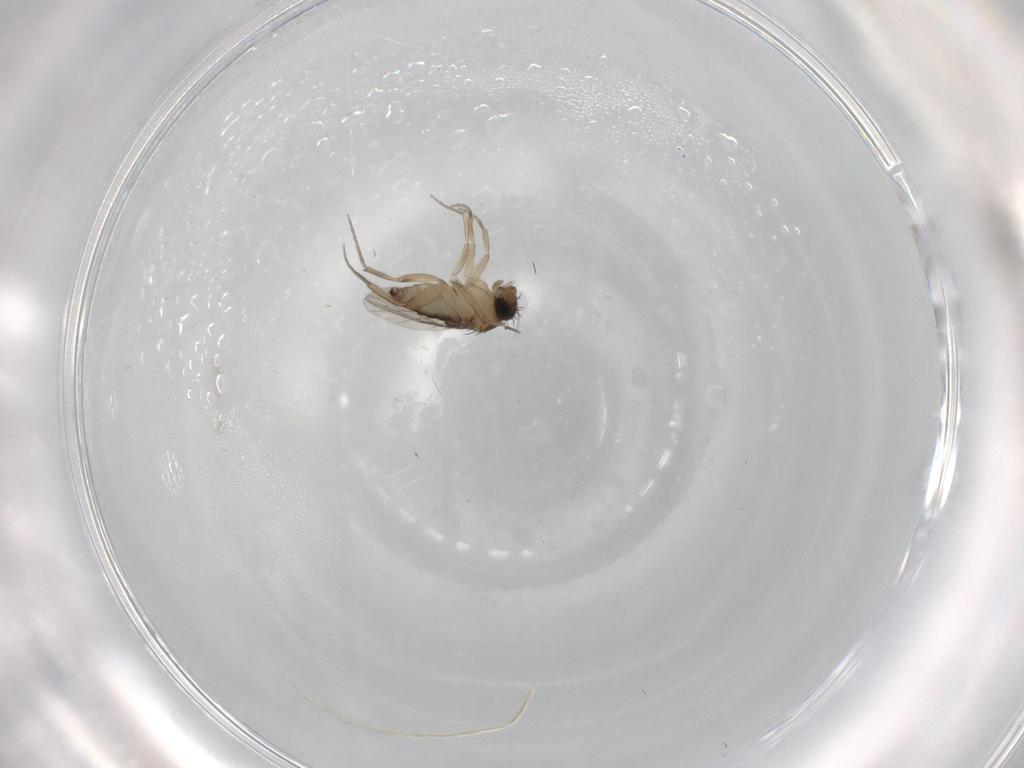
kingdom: Animalia
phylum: Arthropoda
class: Insecta
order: Diptera
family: Phoridae
